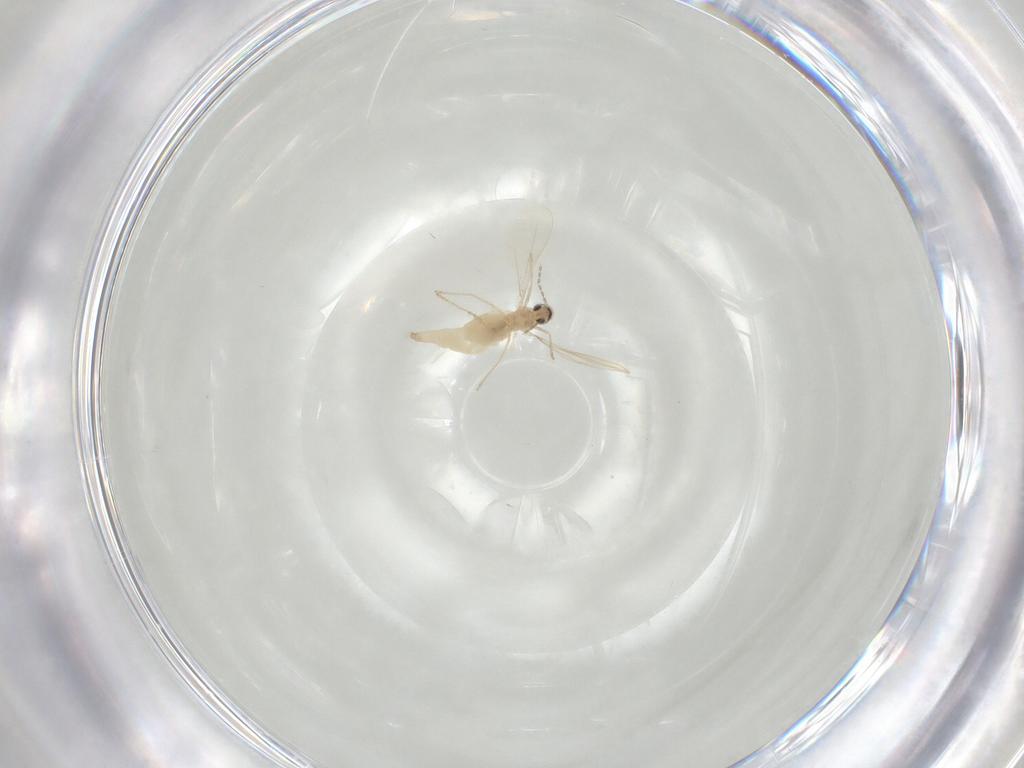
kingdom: Animalia
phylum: Arthropoda
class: Insecta
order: Diptera
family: Cecidomyiidae
